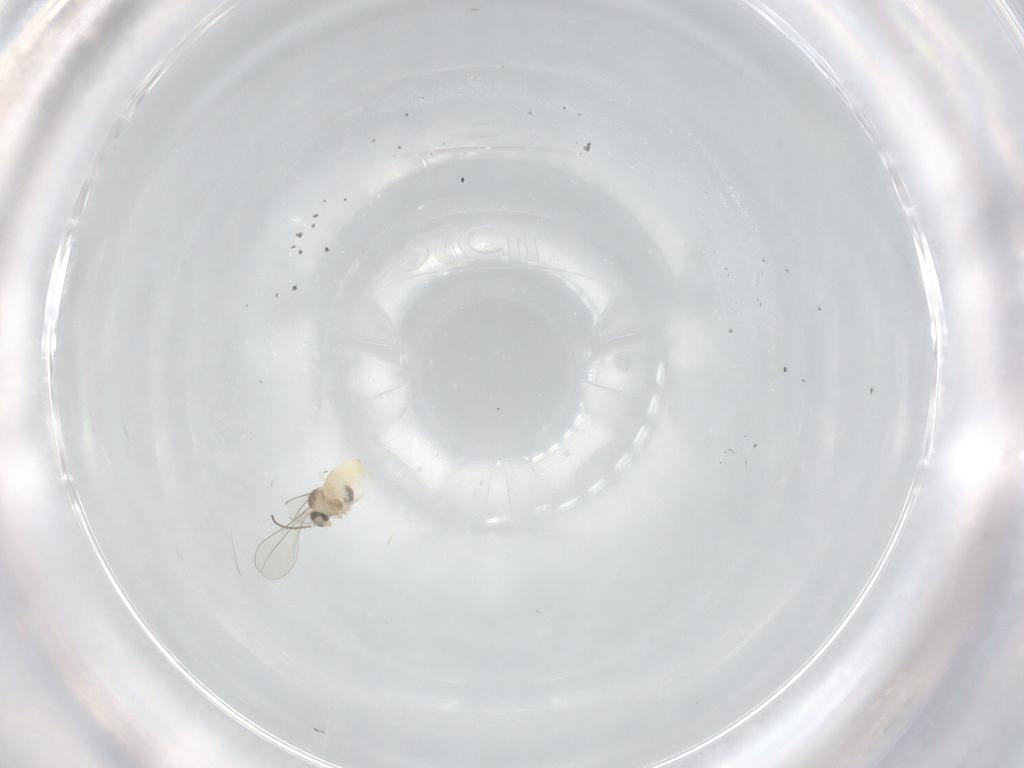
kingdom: Animalia
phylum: Arthropoda
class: Insecta
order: Diptera
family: Cecidomyiidae
